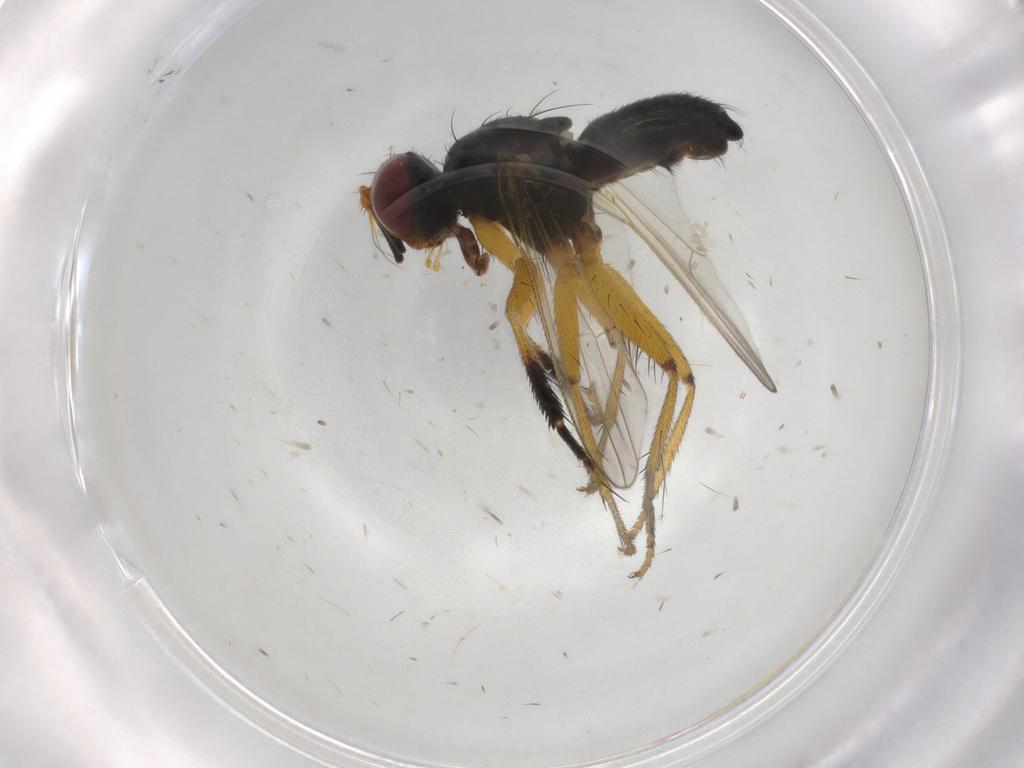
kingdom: Animalia
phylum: Arthropoda
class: Insecta
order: Diptera
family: Muscidae
